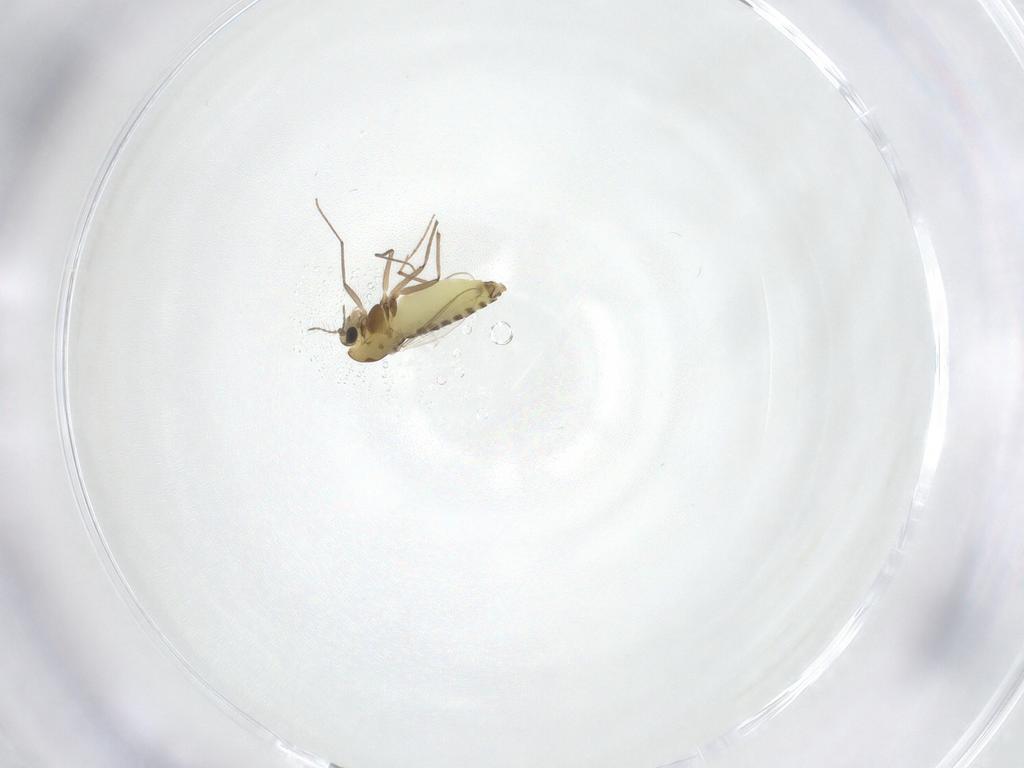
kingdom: Animalia
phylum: Arthropoda
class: Insecta
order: Diptera
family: Chironomidae
